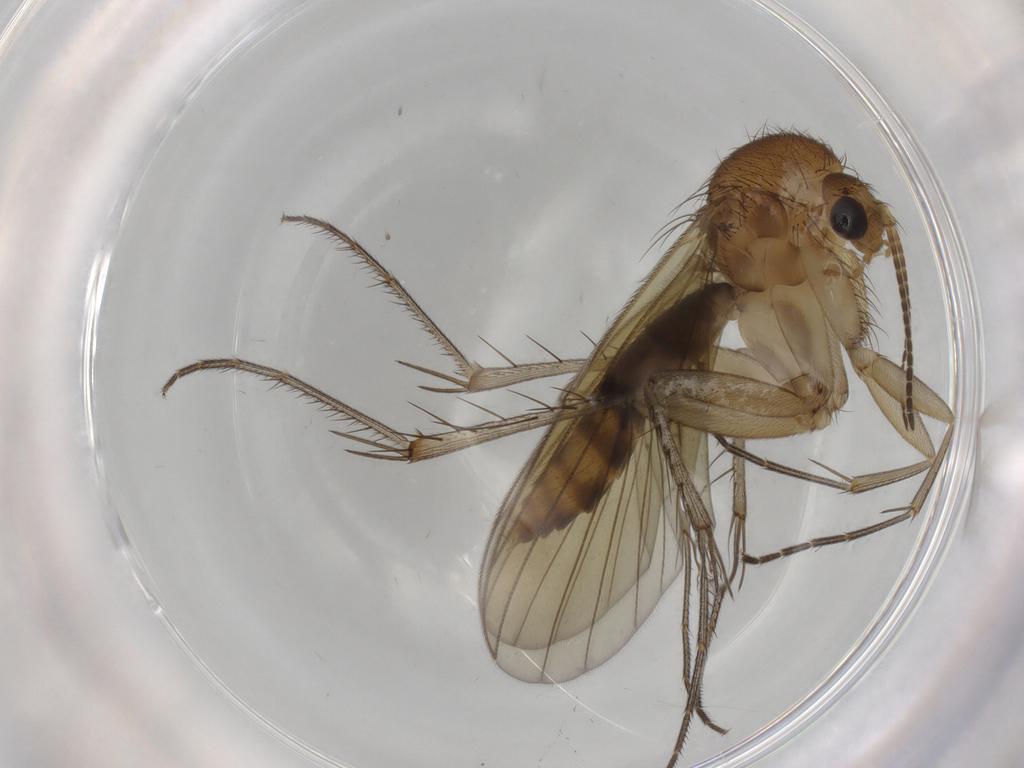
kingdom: Animalia
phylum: Arthropoda
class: Insecta
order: Diptera
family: Mycetophilidae
